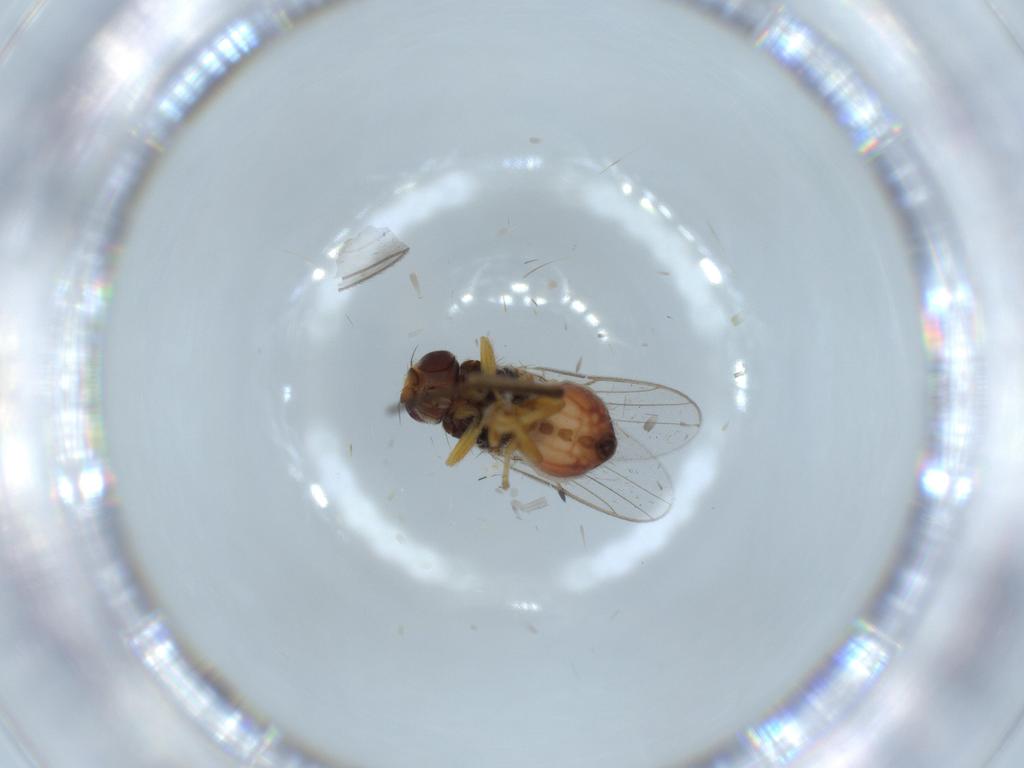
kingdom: Animalia
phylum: Arthropoda
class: Insecta
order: Diptera
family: Chloropidae
